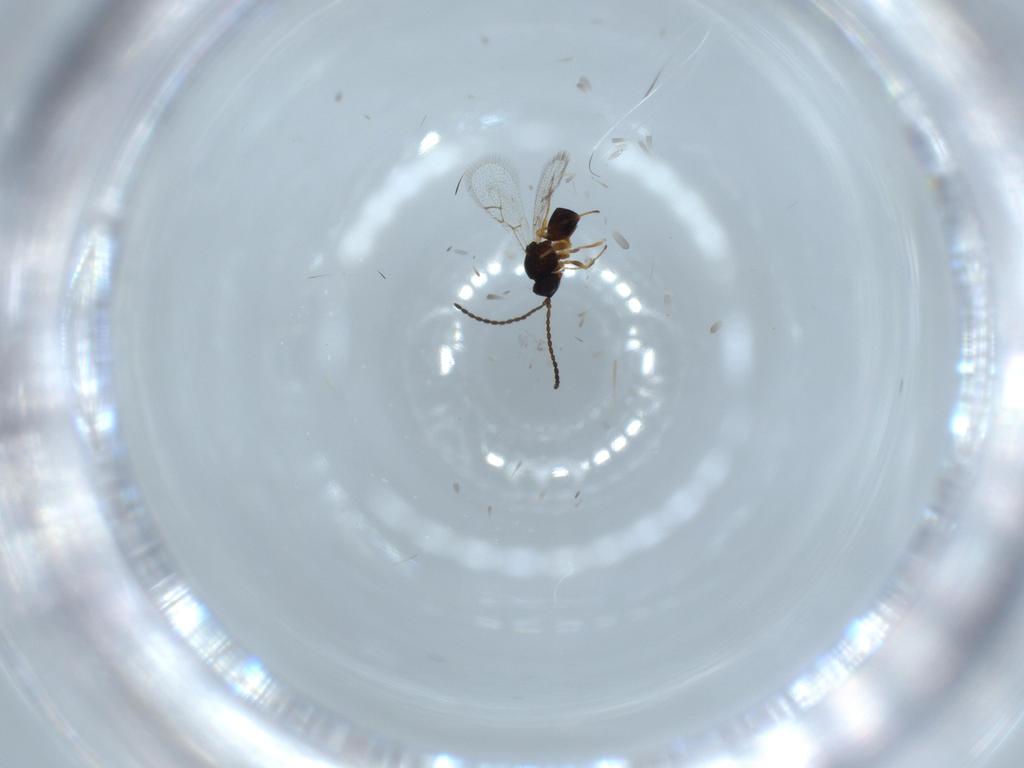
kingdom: Animalia
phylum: Arthropoda
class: Insecta
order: Hymenoptera
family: Figitidae
